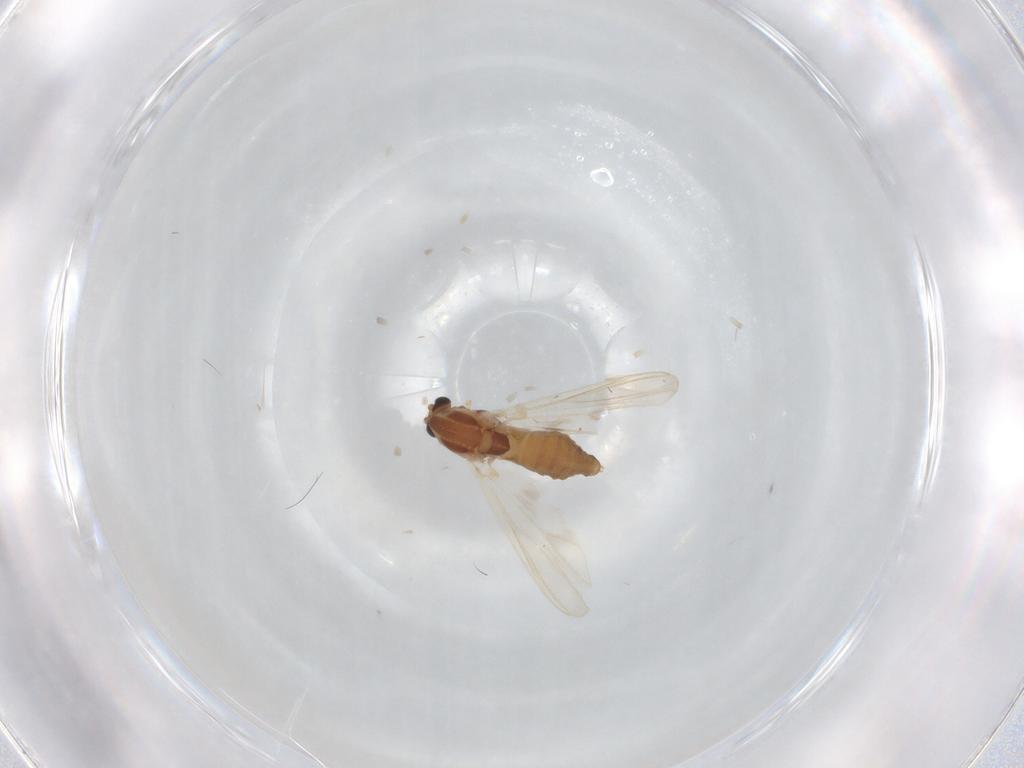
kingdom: Animalia
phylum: Arthropoda
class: Insecta
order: Diptera
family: Chironomidae
